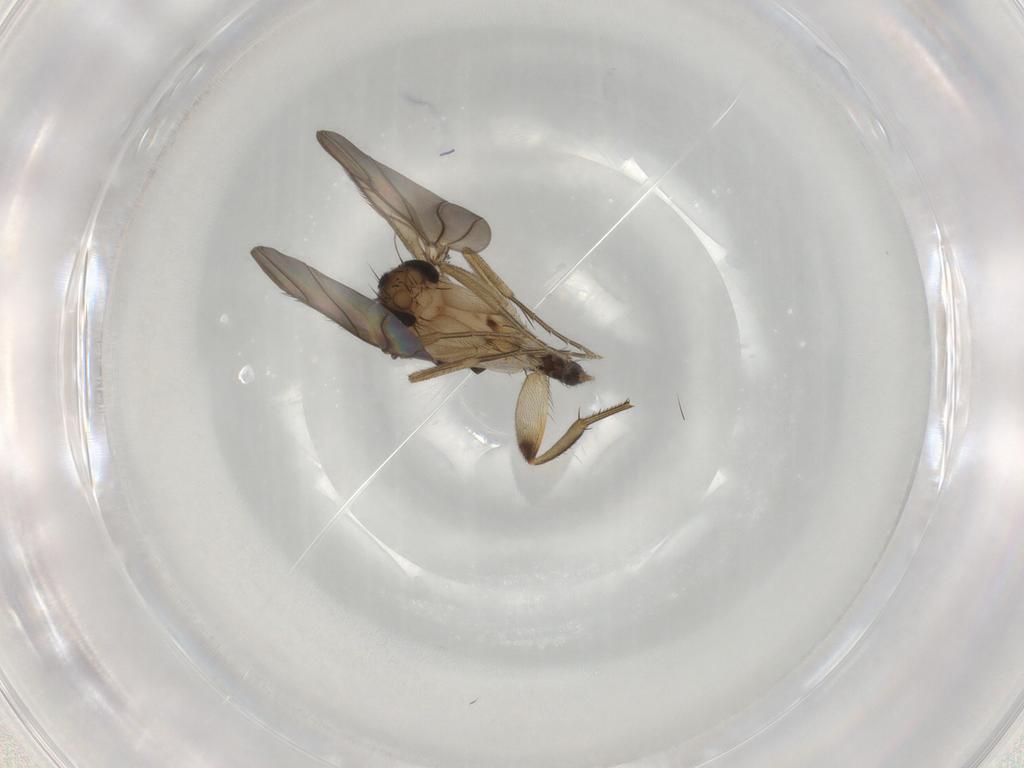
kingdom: Animalia
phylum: Arthropoda
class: Insecta
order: Diptera
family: Phoridae
